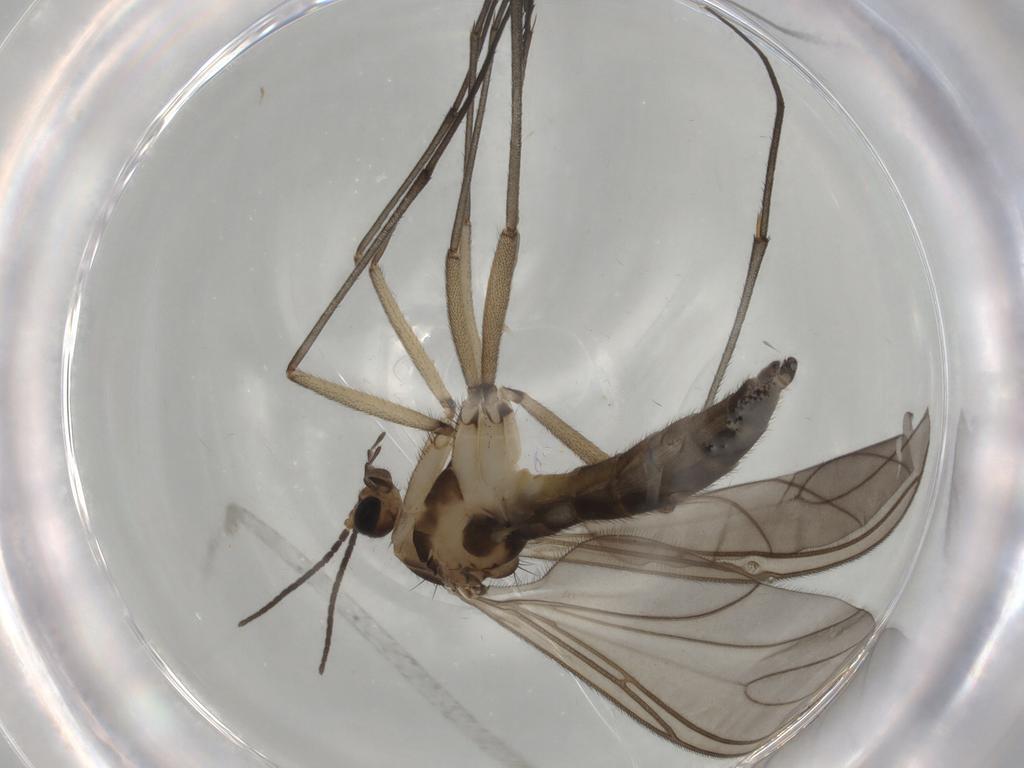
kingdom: Animalia
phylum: Arthropoda
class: Insecta
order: Diptera
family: Sciaridae
